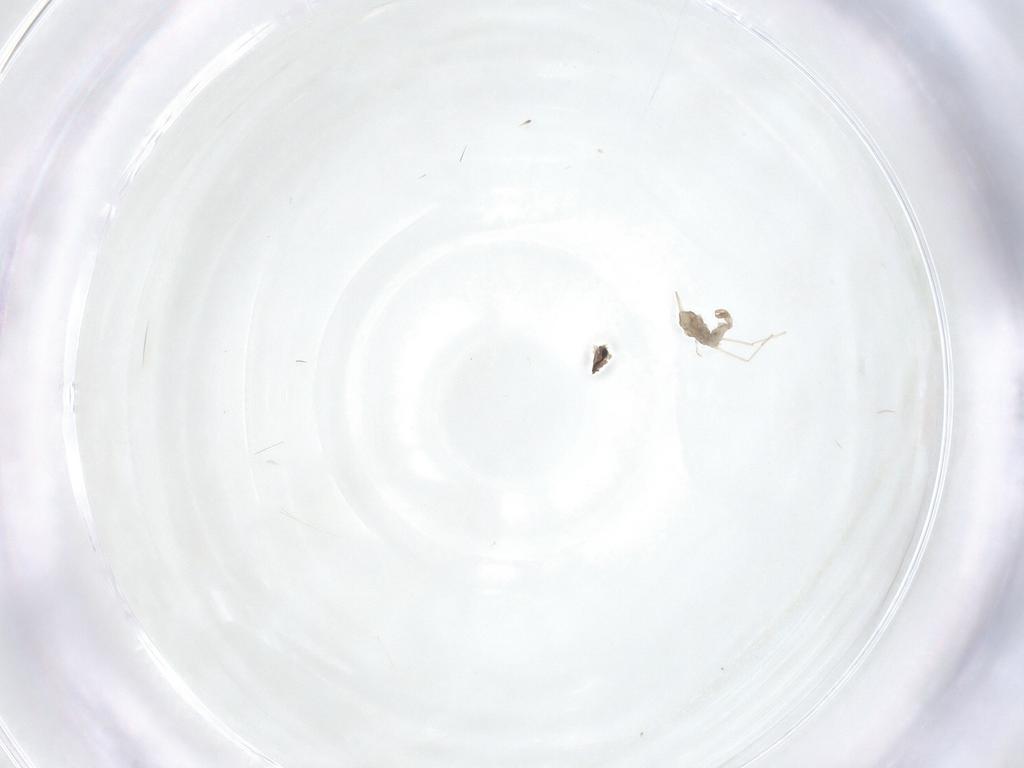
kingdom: Animalia
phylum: Arthropoda
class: Insecta
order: Diptera
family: Mycetophilidae
